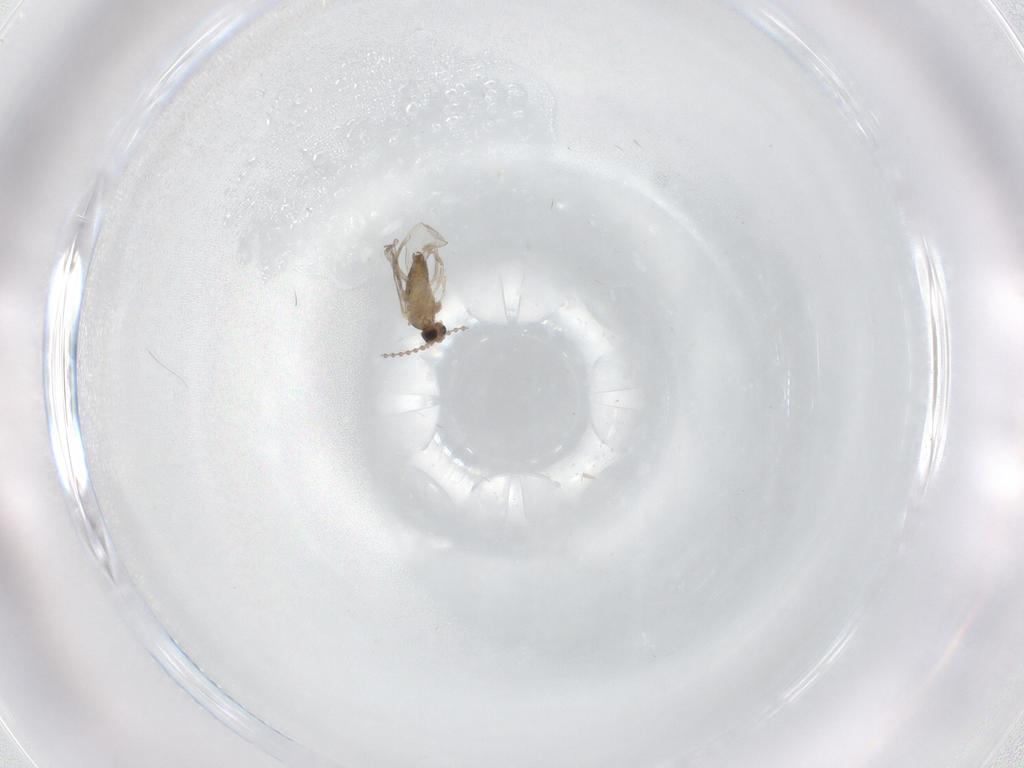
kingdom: Animalia
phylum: Arthropoda
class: Insecta
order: Diptera
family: Cecidomyiidae
